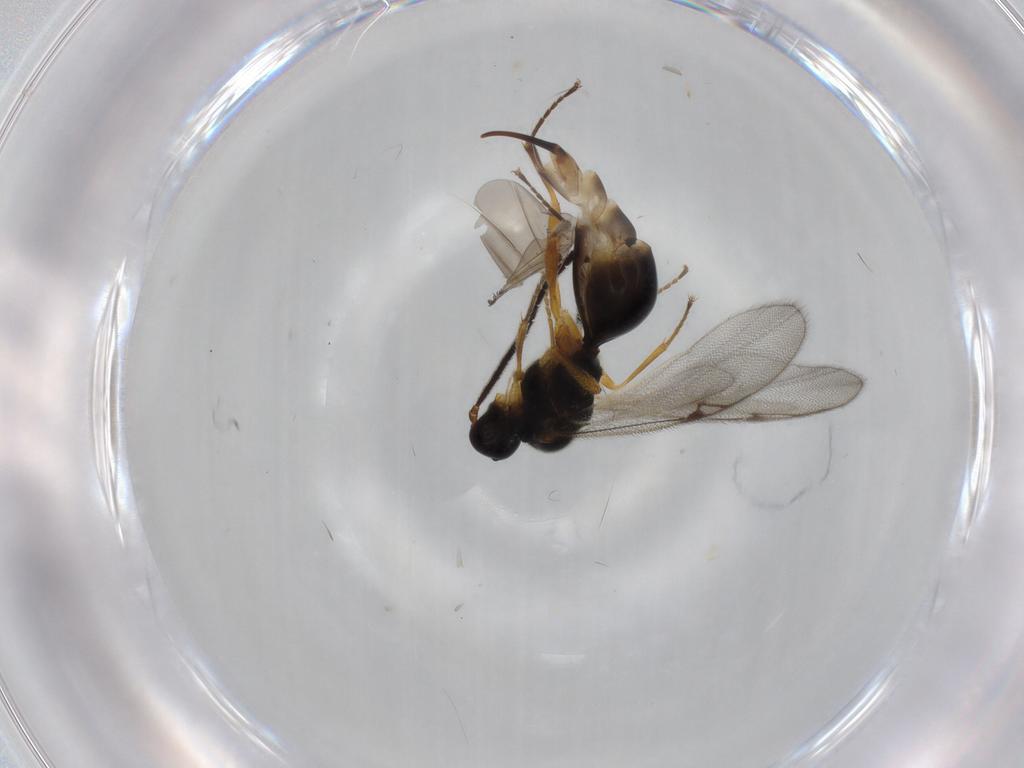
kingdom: Animalia
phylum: Arthropoda
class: Insecta
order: Hymenoptera
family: Proctotrupidae
